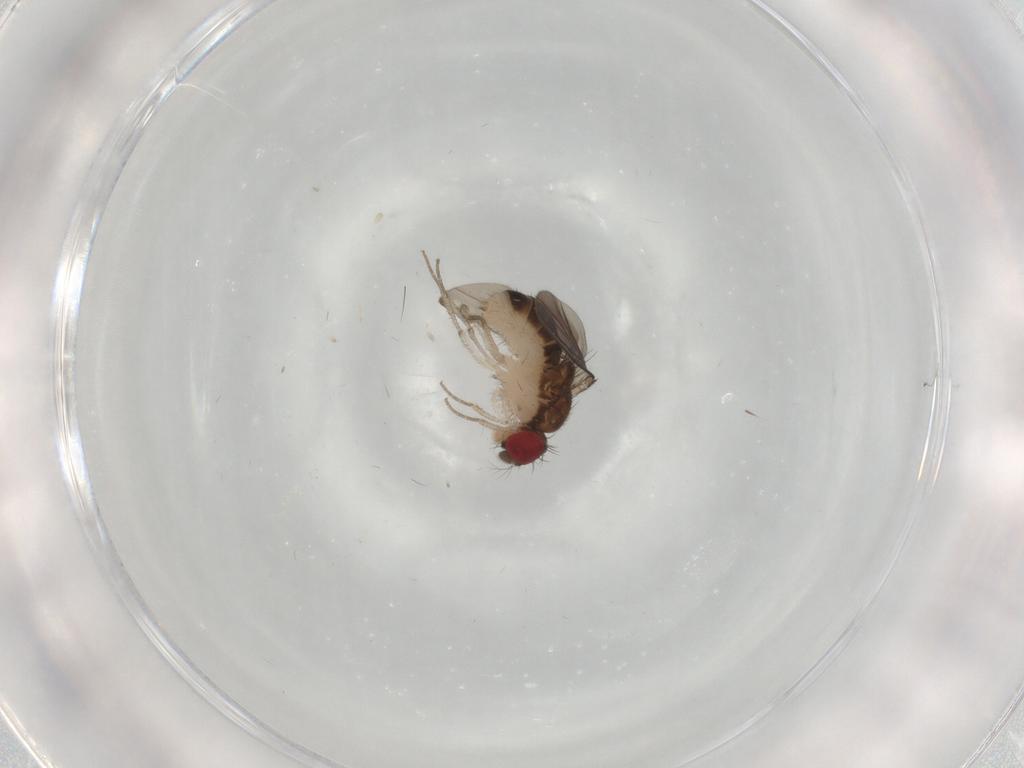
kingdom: Animalia
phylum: Arthropoda
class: Insecta
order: Diptera
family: Drosophilidae
